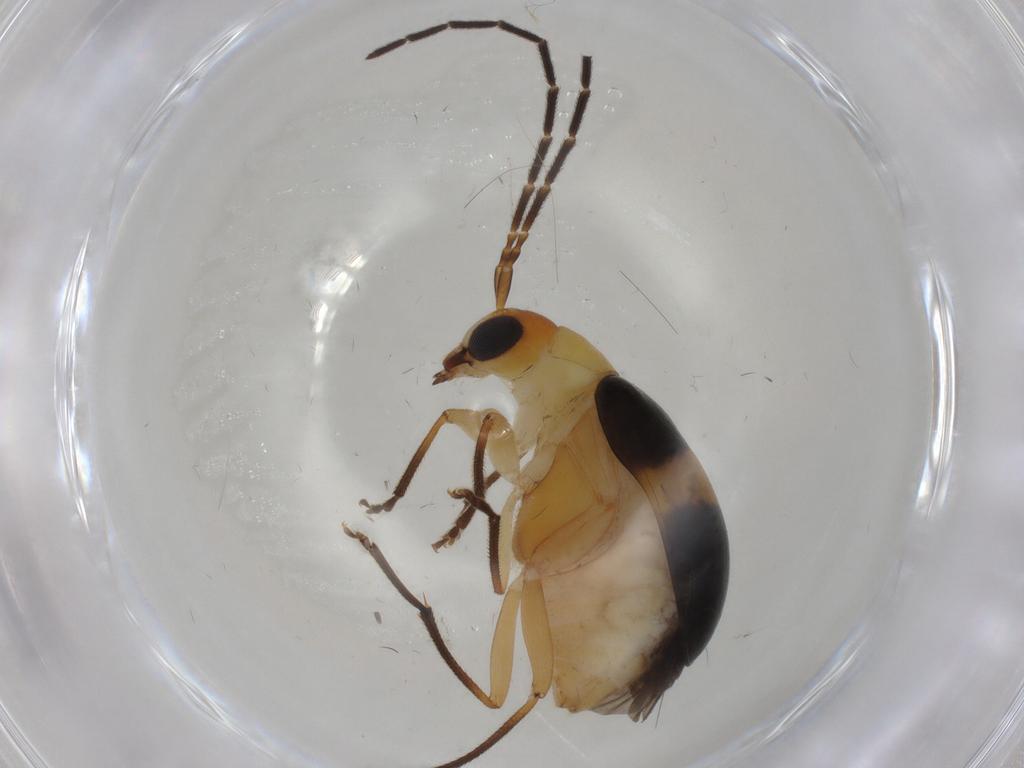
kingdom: Animalia
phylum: Arthropoda
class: Insecta
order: Coleoptera
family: Chrysomelidae
